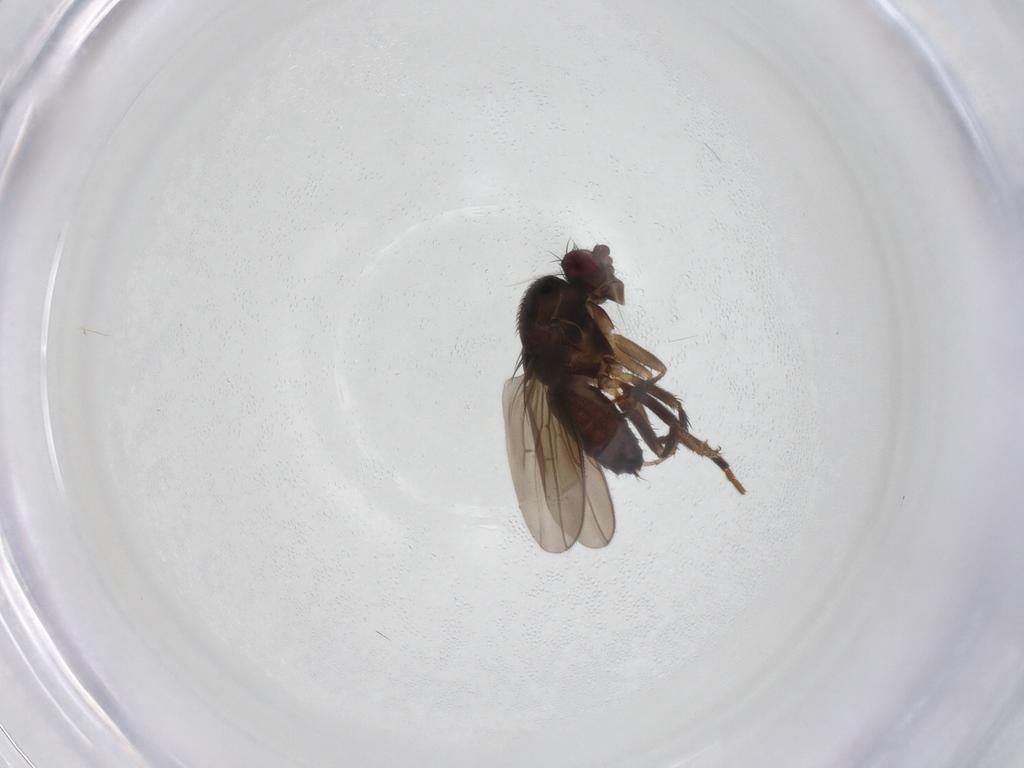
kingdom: Animalia
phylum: Arthropoda
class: Insecta
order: Diptera
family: Sphaeroceridae
